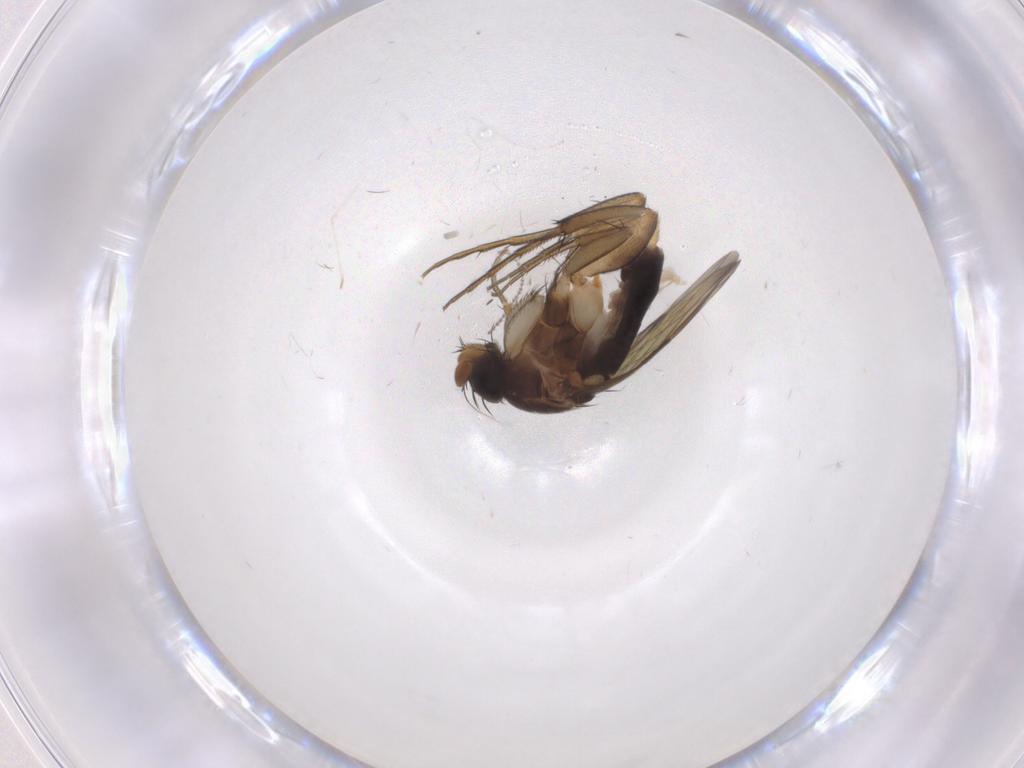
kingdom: Animalia
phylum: Arthropoda
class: Insecta
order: Diptera
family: Phoridae
